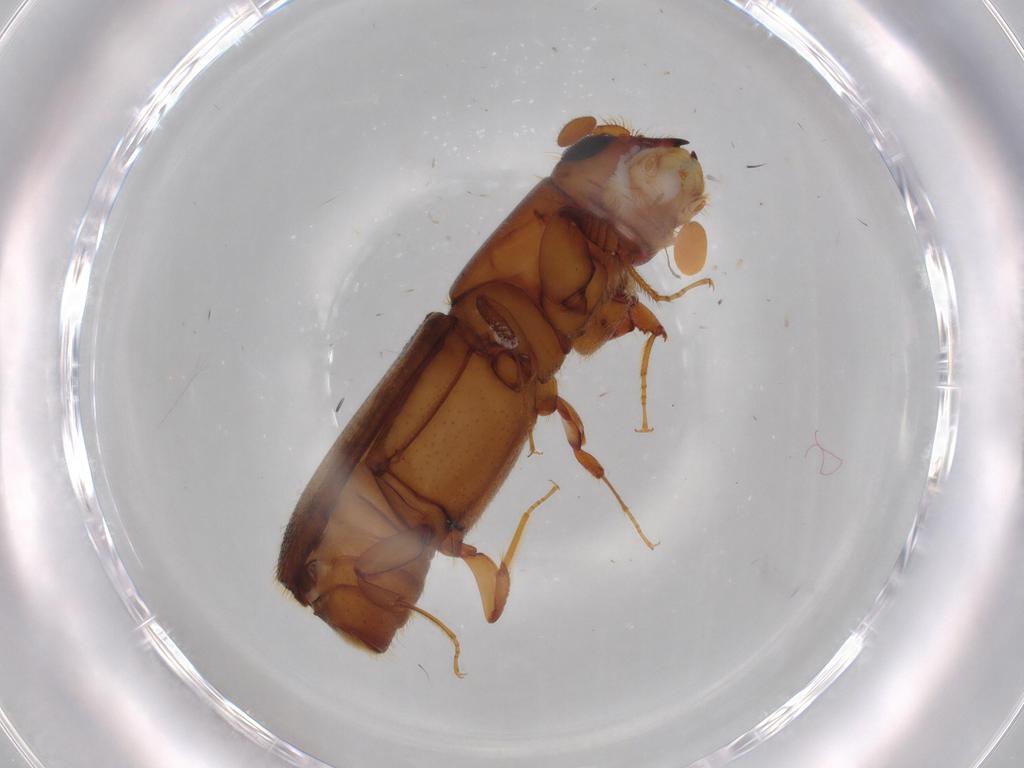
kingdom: Animalia
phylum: Arthropoda
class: Insecta
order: Coleoptera
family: Curculionidae
